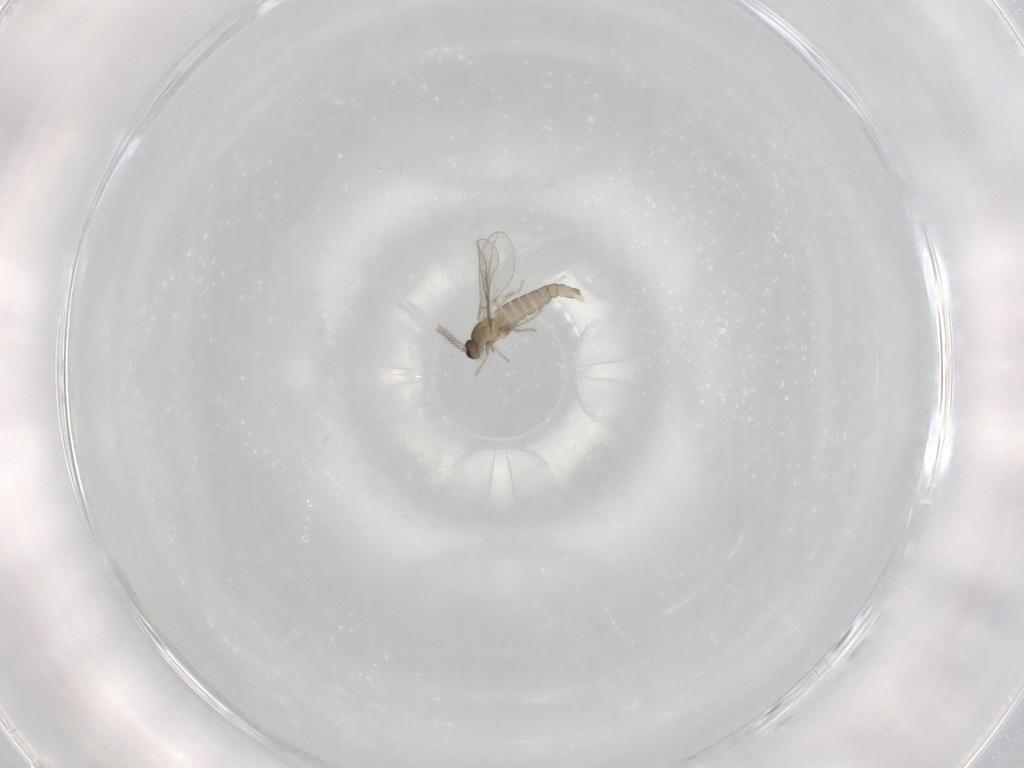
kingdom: Animalia
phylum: Arthropoda
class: Insecta
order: Diptera
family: Cecidomyiidae
